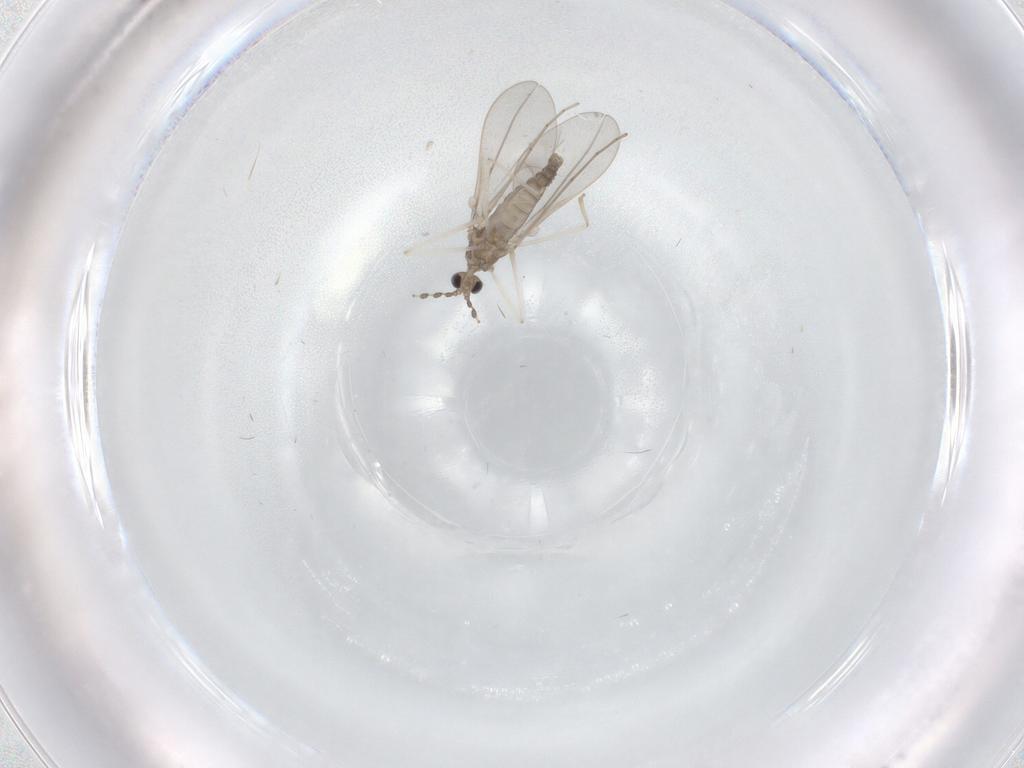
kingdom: Animalia
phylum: Arthropoda
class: Insecta
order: Diptera
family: Cecidomyiidae
